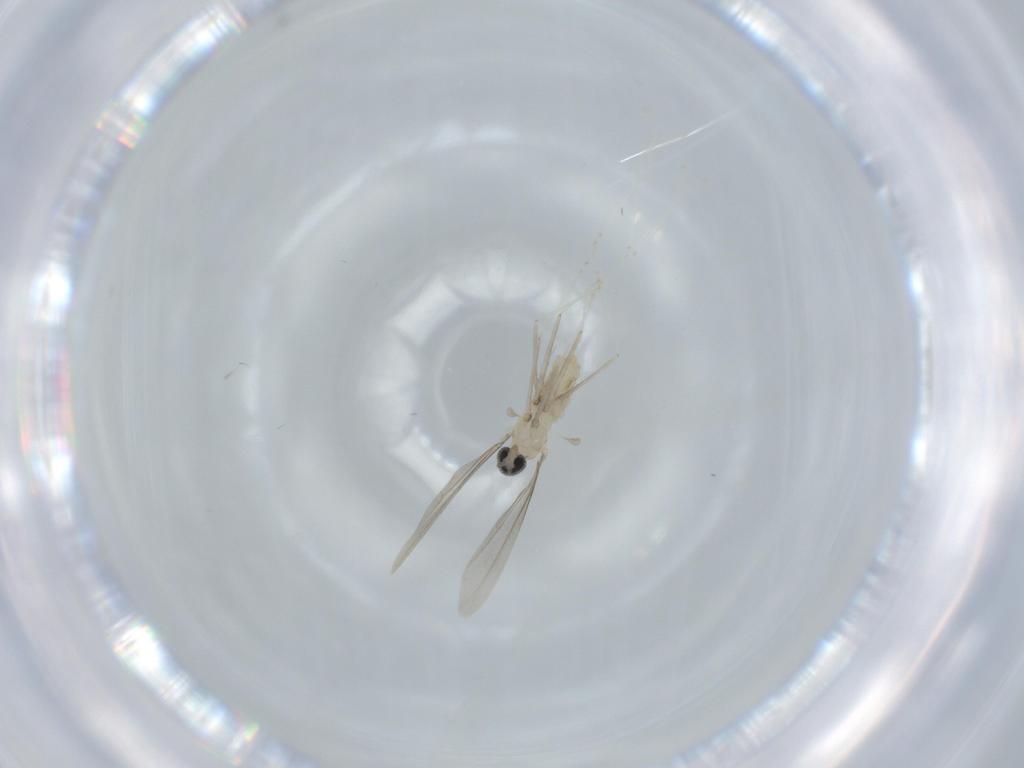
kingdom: Animalia
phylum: Arthropoda
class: Insecta
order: Diptera
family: Cecidomyiidae
